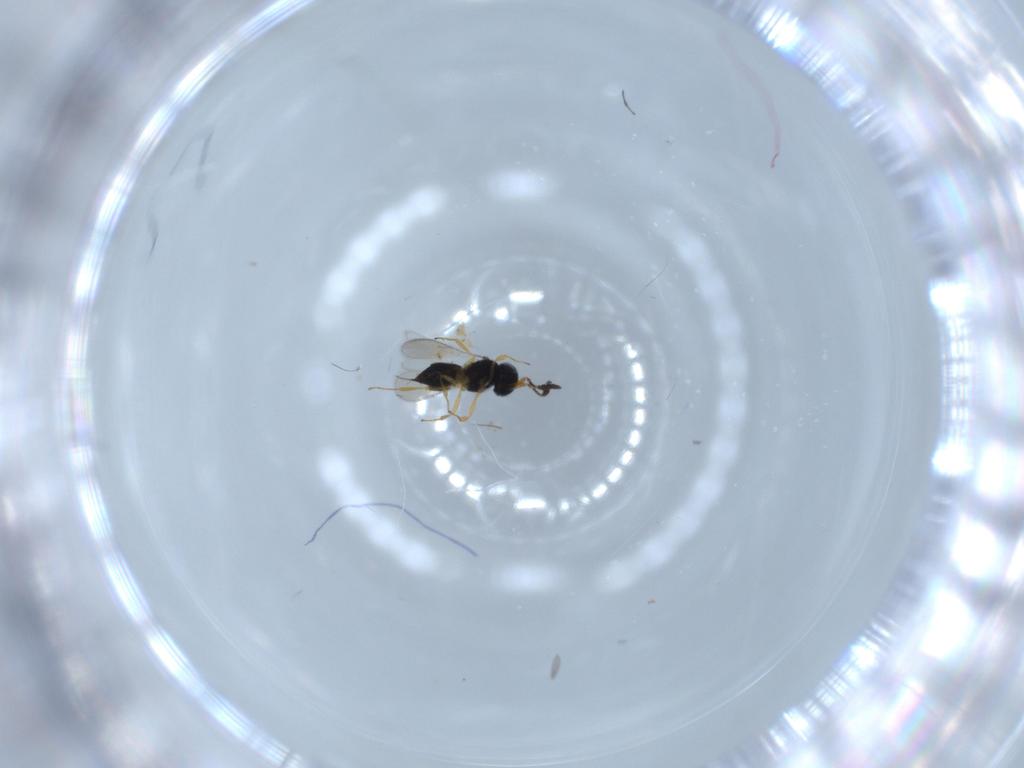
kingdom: Animalia
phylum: Arthropoda
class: Insecta
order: Hymenoptera
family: Scelionidae
